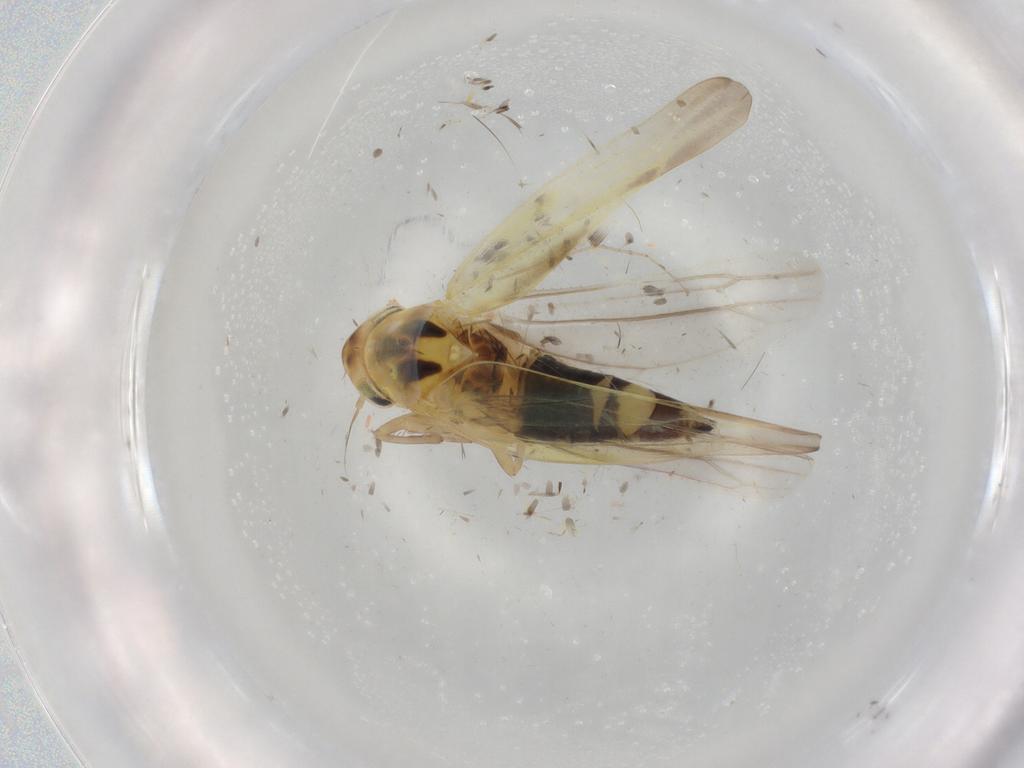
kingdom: Animalia
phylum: Arthropoda
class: Insecta
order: Hemiptera
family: Cicadellidae
